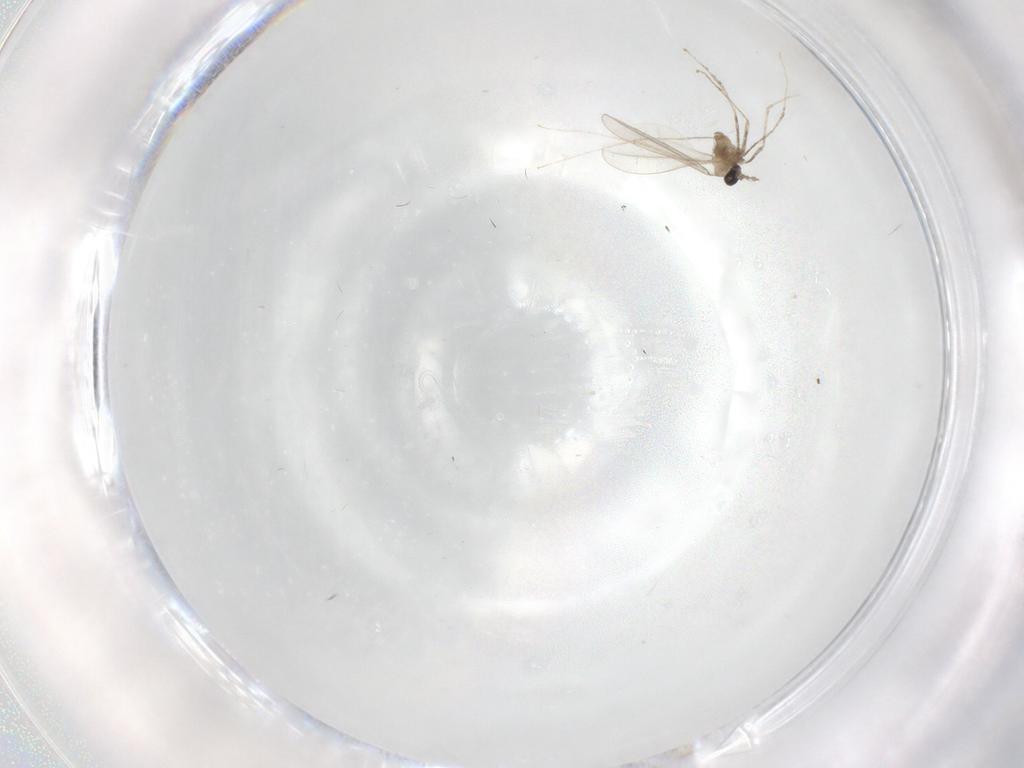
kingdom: Animalia
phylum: Arthropoda
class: Insecta
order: Diptera
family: Cecidomyiidae
